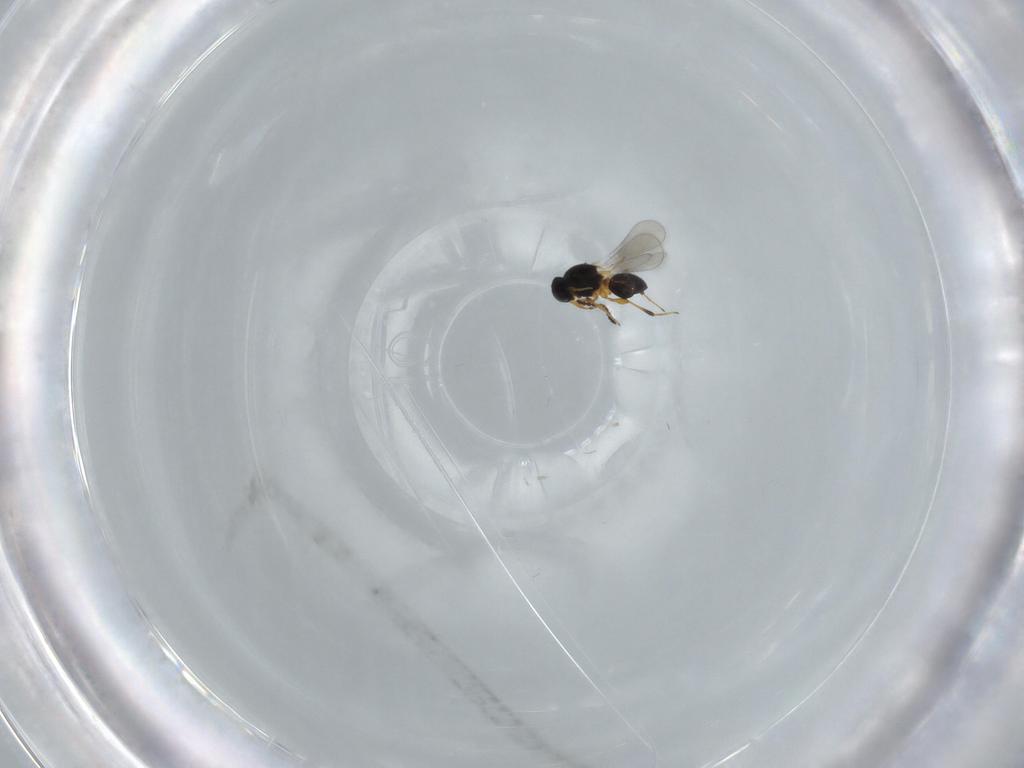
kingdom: Animalia
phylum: Arthropoda
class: Insecta
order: Hymenoptera
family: Platygastridae
